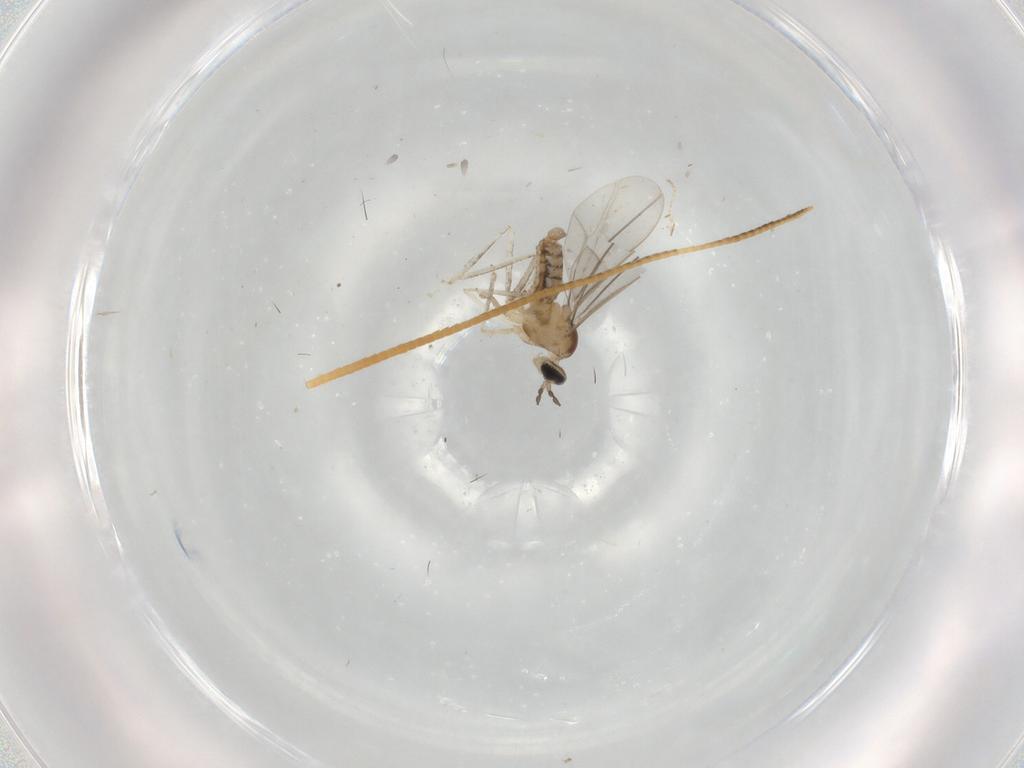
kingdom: Animalia
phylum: Arthropoda
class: Insecta
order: Diptera
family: Cecidomyiidae
